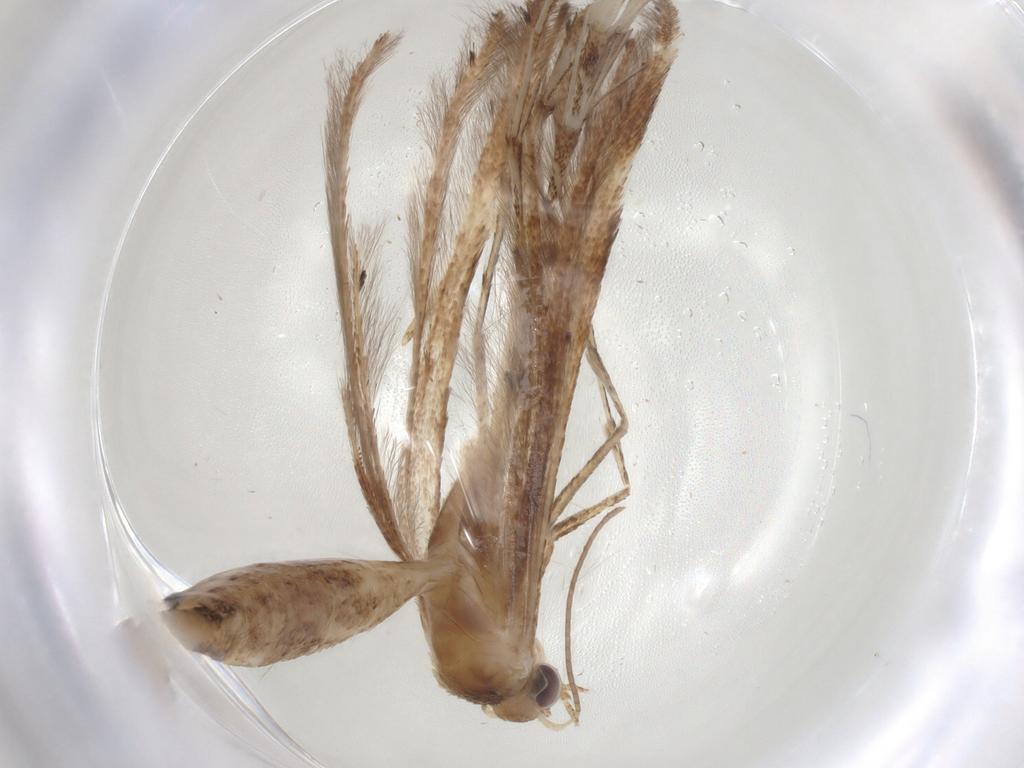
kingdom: Animalia
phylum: Arthropoda
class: Insecta
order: Lepidoptera
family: Pterophoridae
